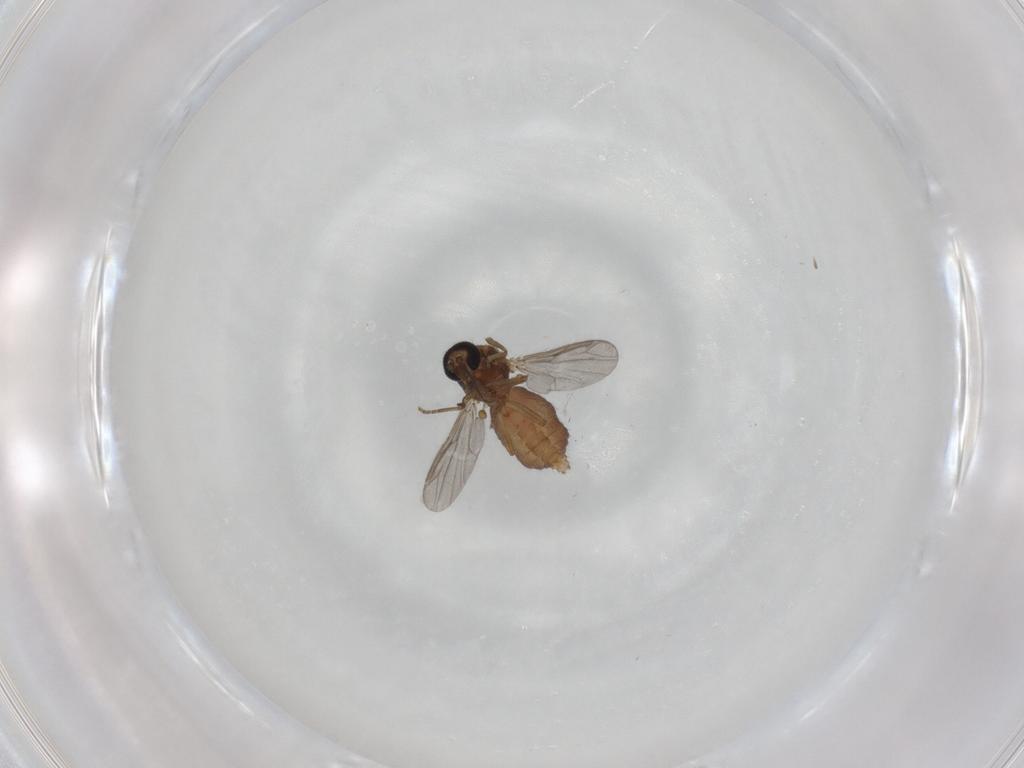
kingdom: Animalia
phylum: Arthropoda
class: Insecta
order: Diptera
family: Ceratopogonidae
